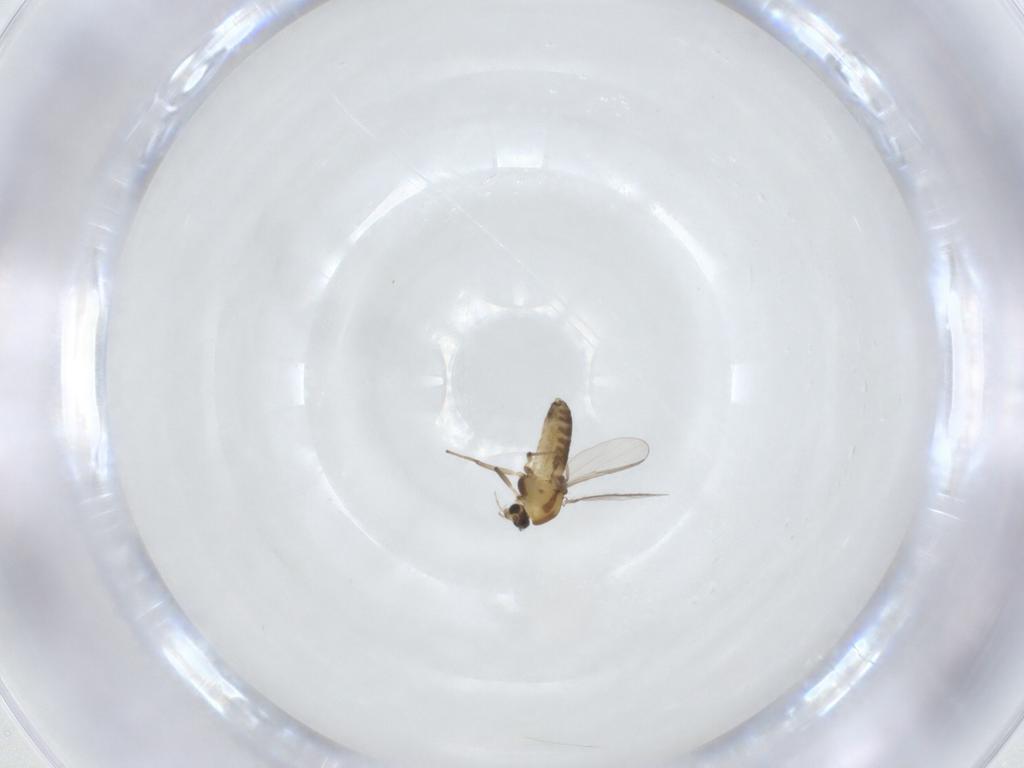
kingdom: Animalia
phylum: Arthropoda
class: Insecta
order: Diptera
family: Chironomidae
